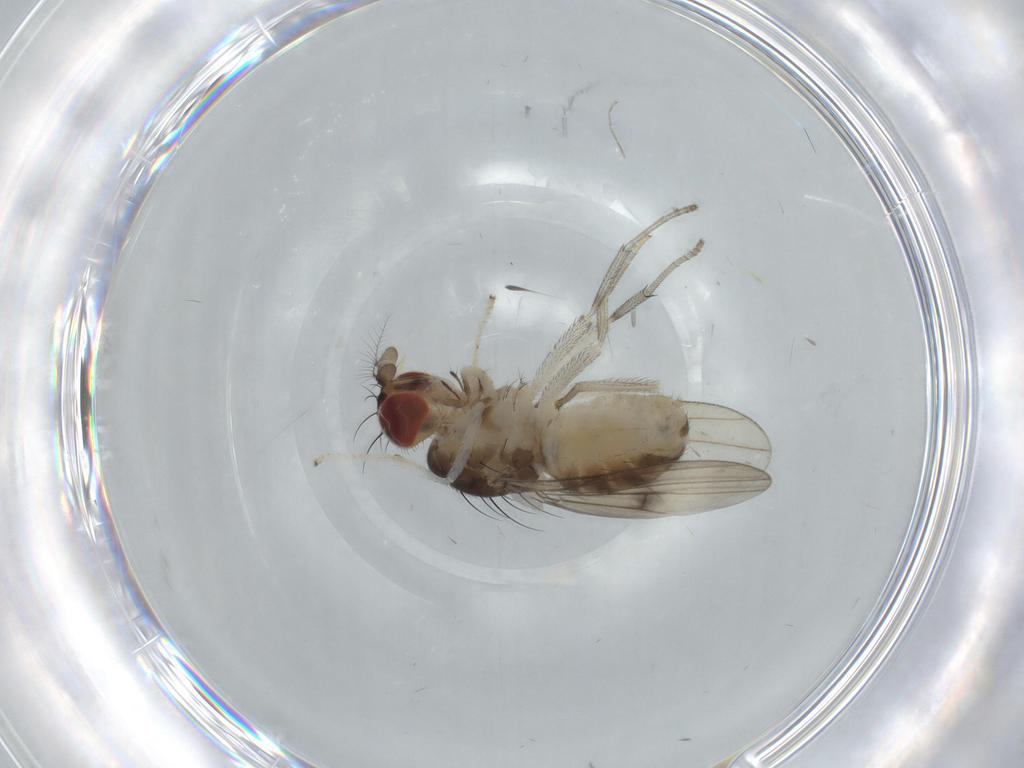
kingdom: Animalia
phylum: Arthropoda
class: Insecta
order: Diptera
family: Lauxaniidae
